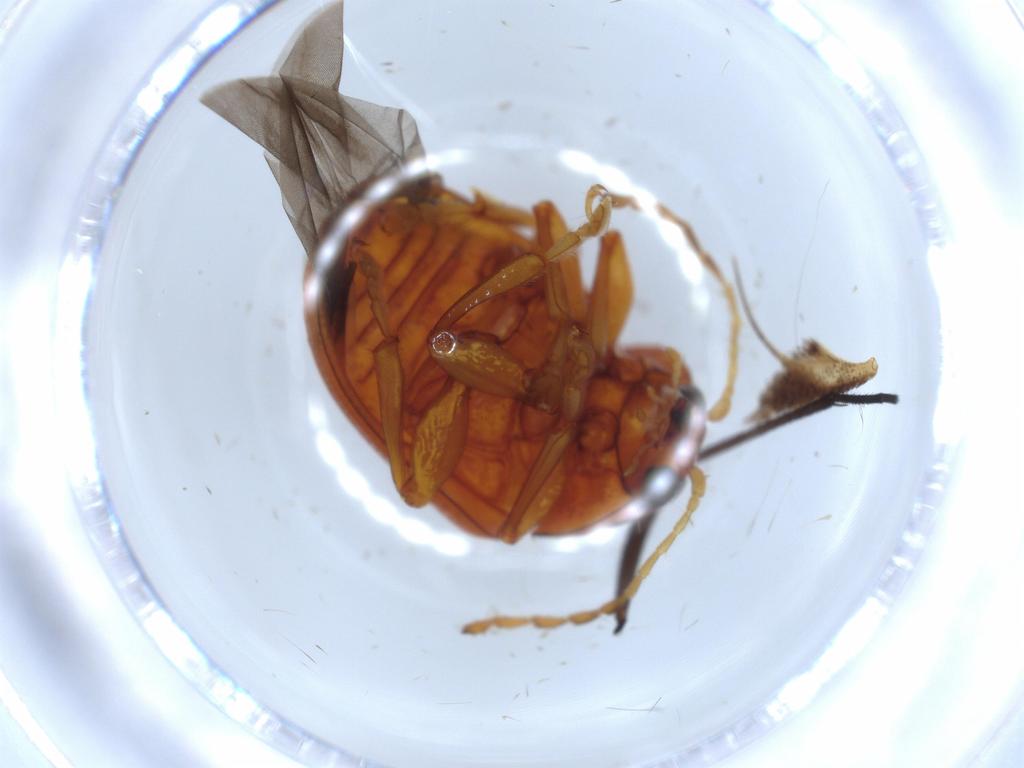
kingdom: Animalia
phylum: Arthropoda
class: Insecta
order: Coleoptera
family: Chrysomelidae
